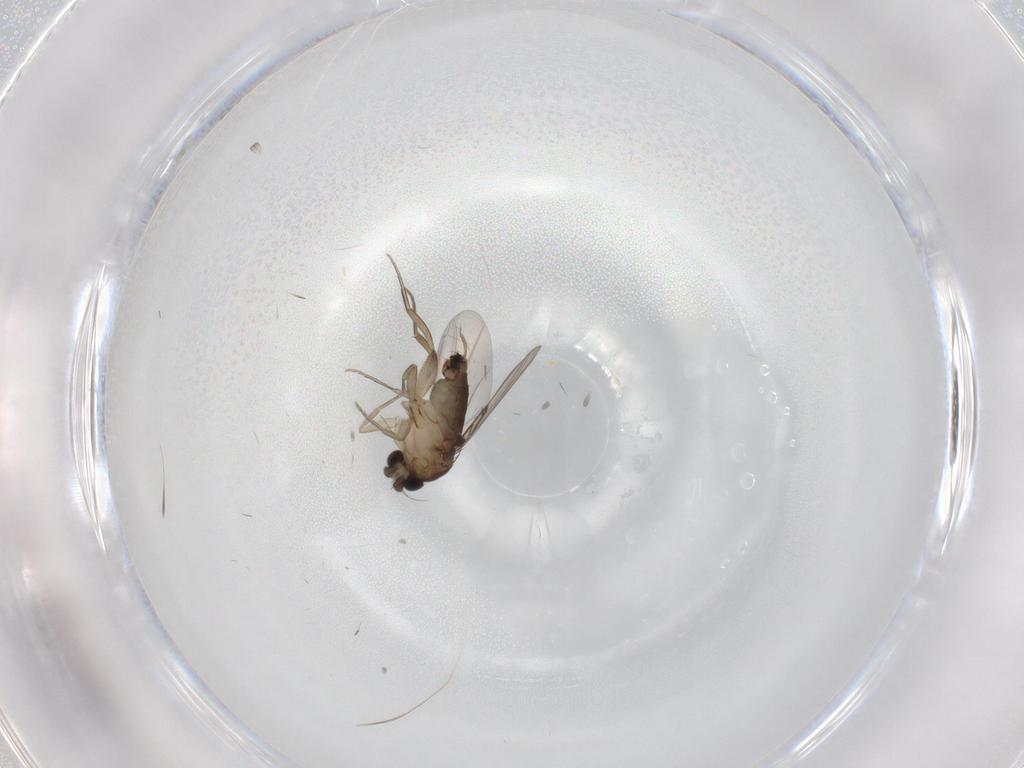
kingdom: Animalia
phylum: Arthropoda
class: Insecta
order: Diptera
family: Phoridae
